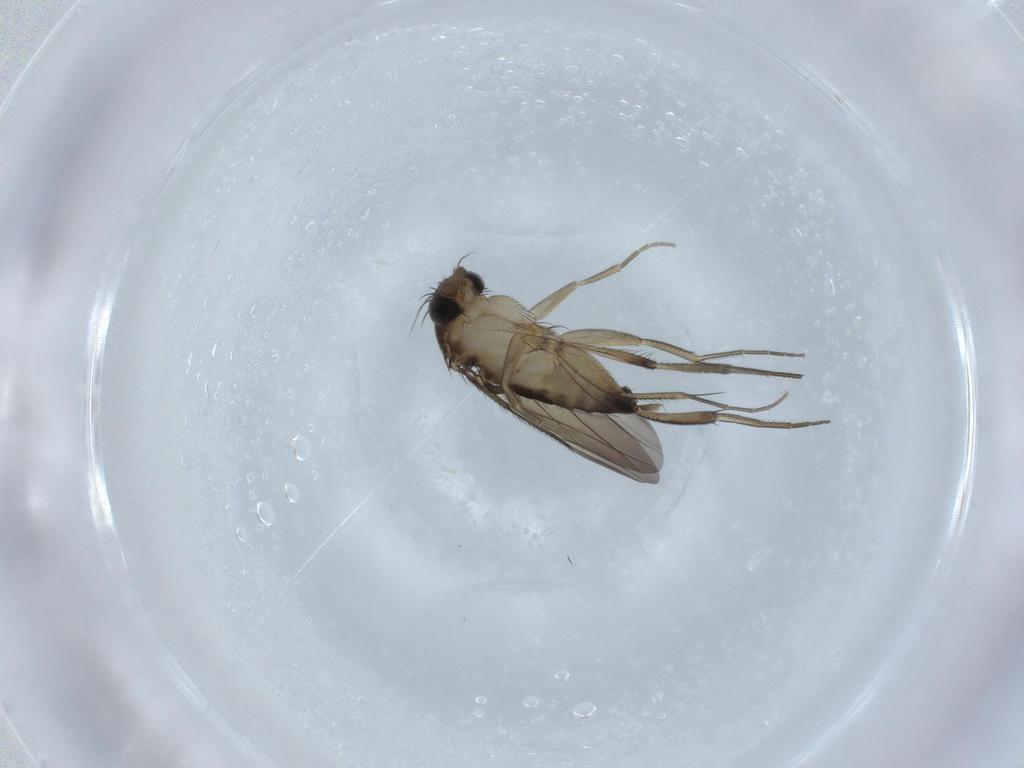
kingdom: Animalia
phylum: Arthropoda
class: Insecta
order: Diptera
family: Phoridae
